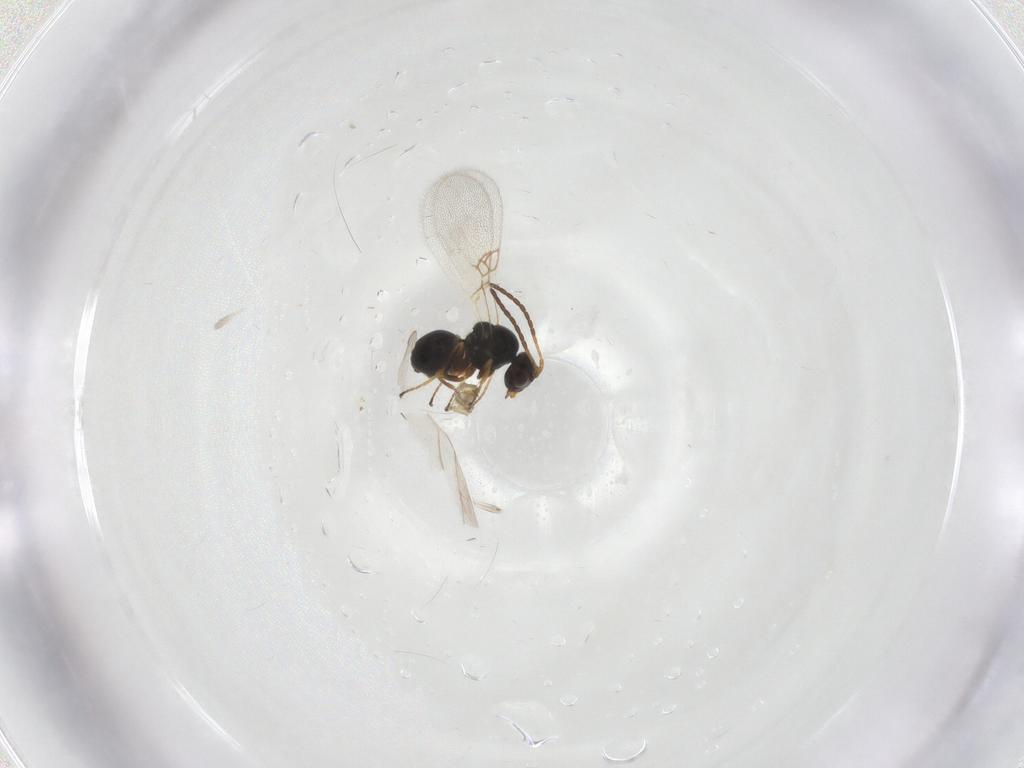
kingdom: Animalia
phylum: Arthropoda
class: Insecta
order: Hymenoptera
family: Figitidae
